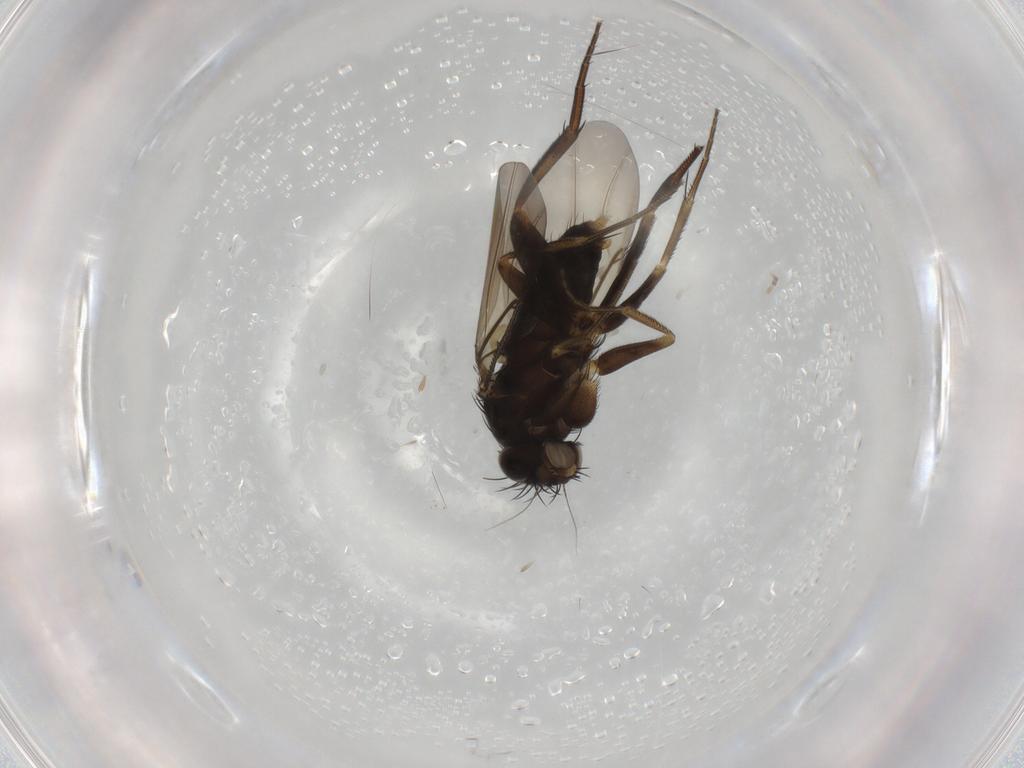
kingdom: Animalia
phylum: Arthropoda
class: Insecta
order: Diptera
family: Phoridae
